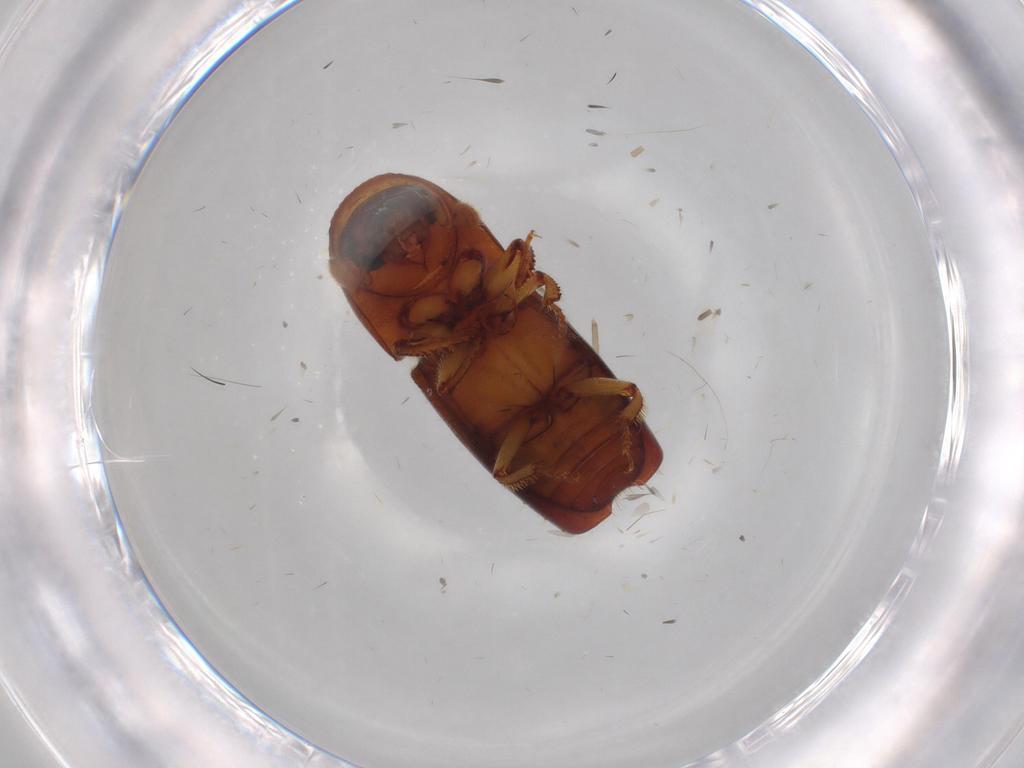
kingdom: Animalia
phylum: Arthropoda
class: Insecta
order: Coleoptera
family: Curculionidae
